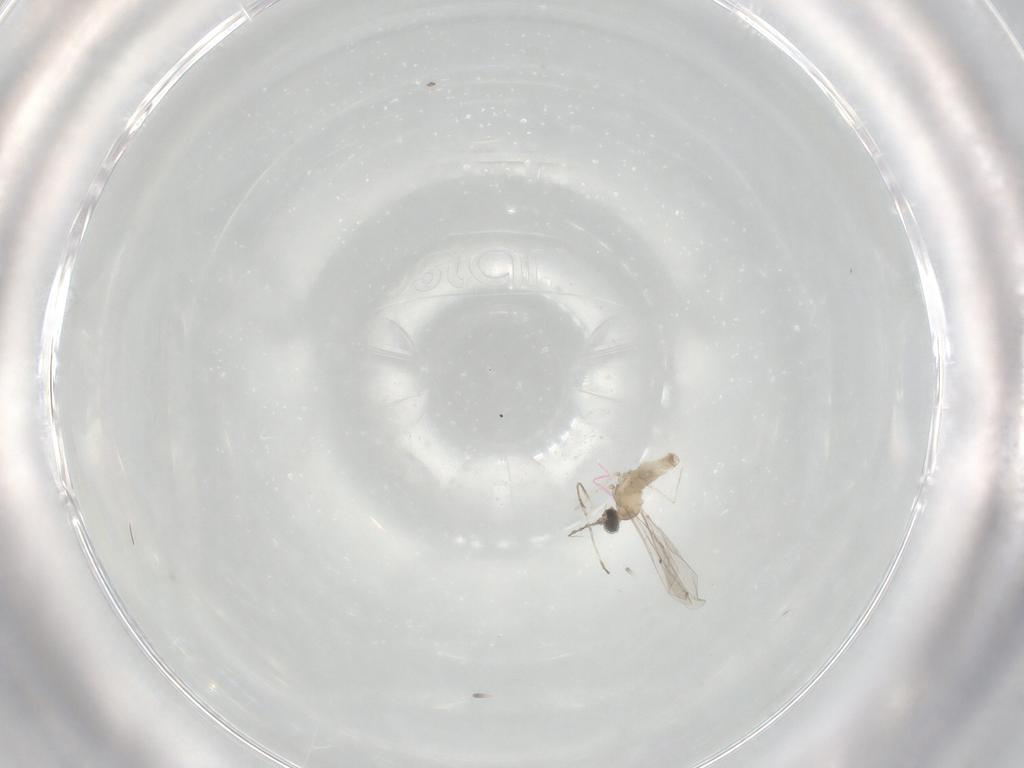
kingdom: Animalia
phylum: Arthropoda
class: Insecta
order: Diptera
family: Cecidomyiidae
